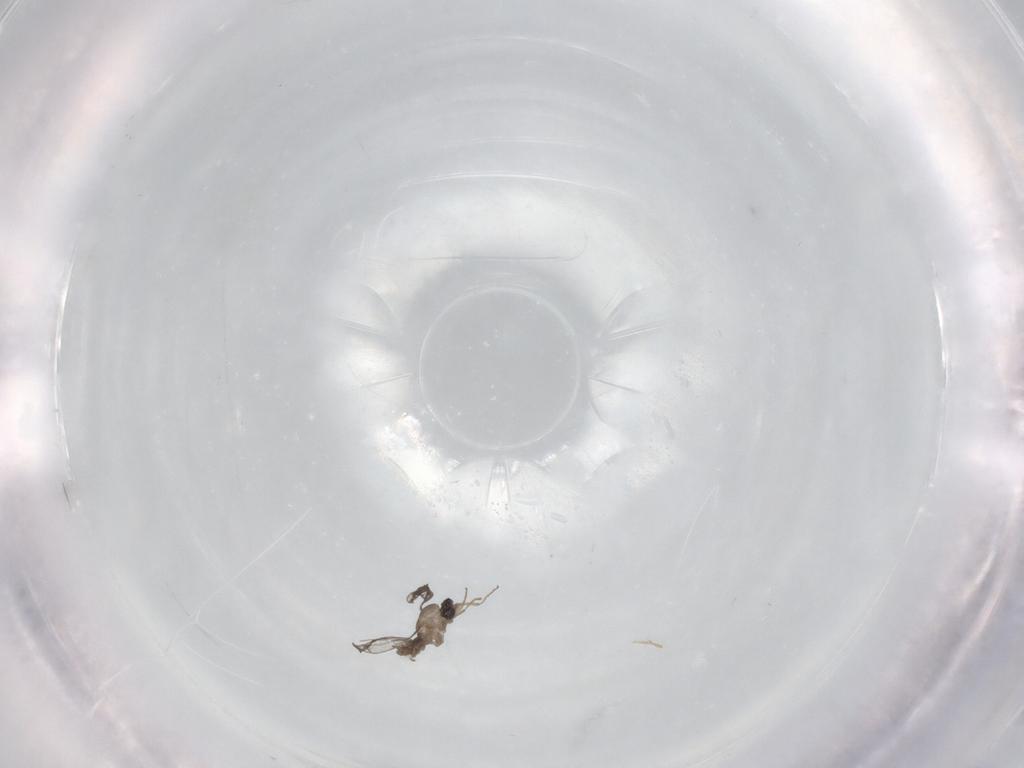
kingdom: Animalia
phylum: Arthropoda
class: Insecta
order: Diptera
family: Cecidomyiidae
